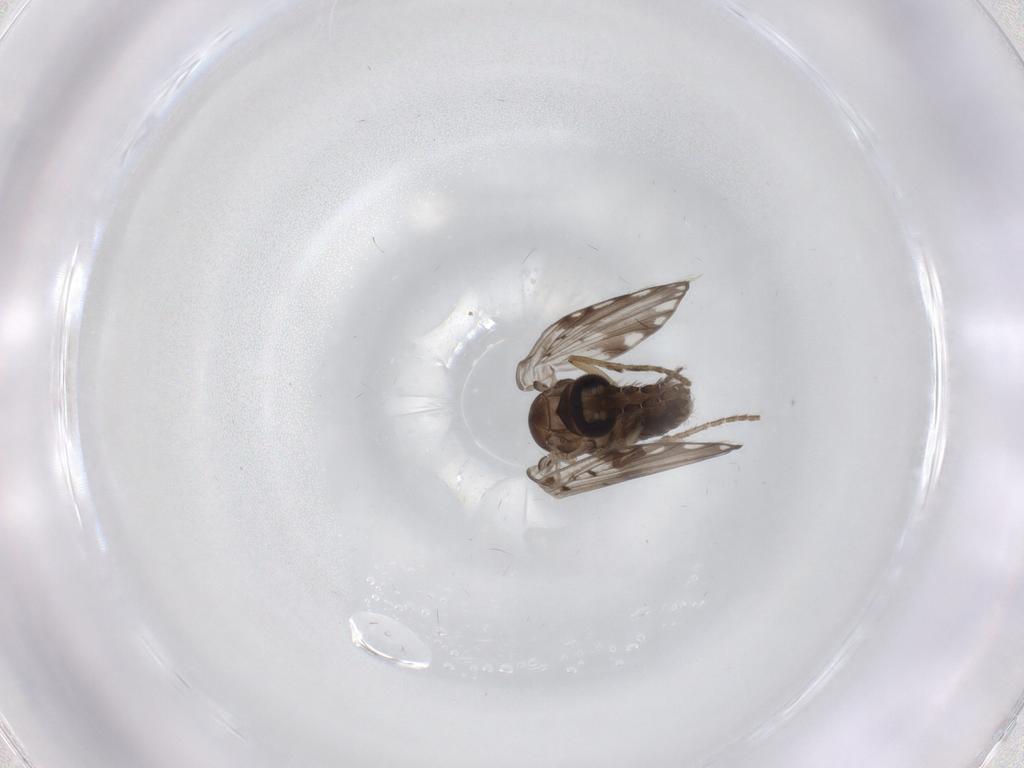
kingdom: Animalia
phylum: Arthropoda
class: Insecta
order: Diptera
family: Psychodidae
